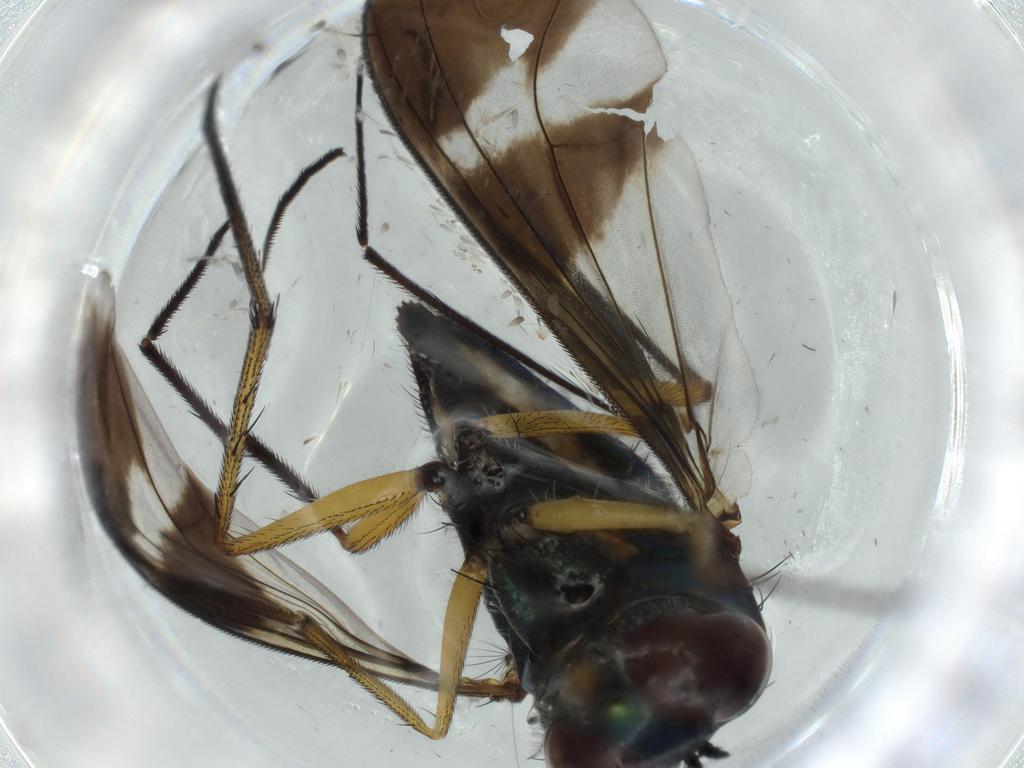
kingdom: Animalia
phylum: Arthropoda
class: Insecta
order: Diptera
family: Dolichopodidae
